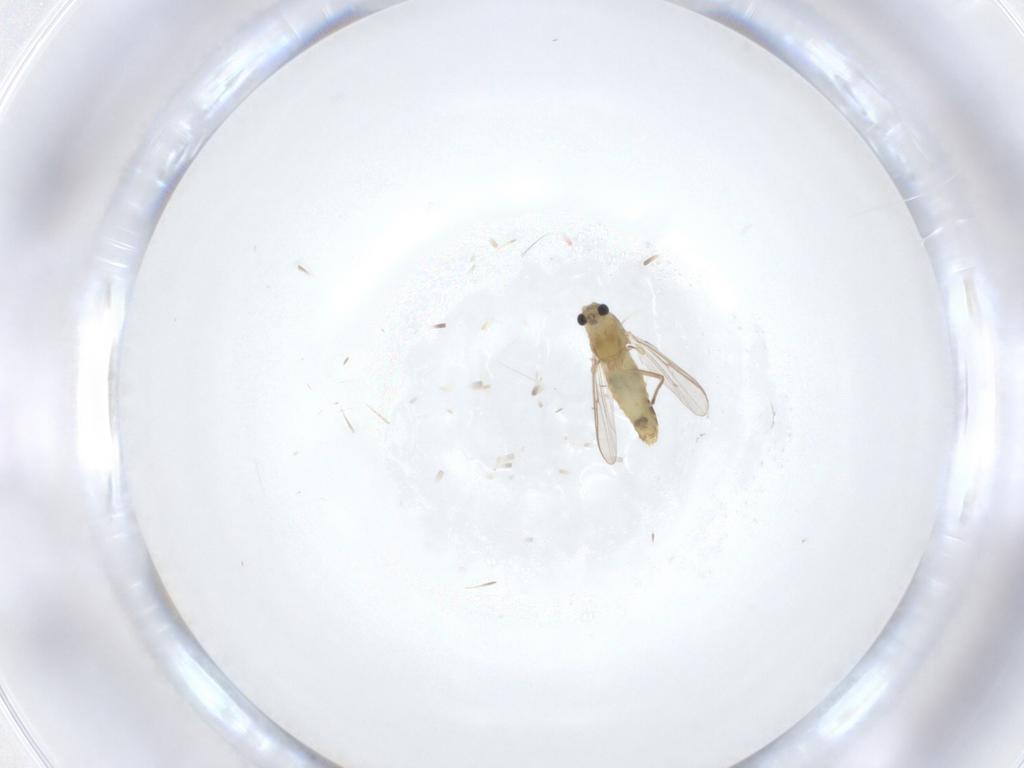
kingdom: Animalia
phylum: Arthropoda
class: Insecta
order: Diptera
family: Chironomidae
